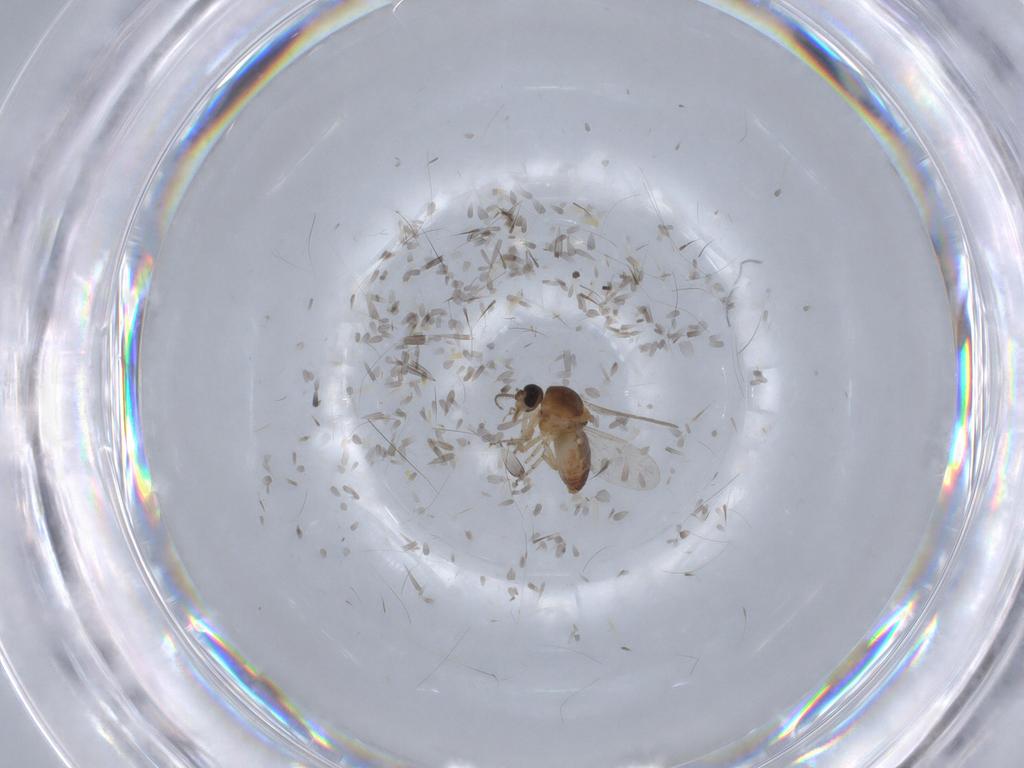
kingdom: Animalia
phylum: Arthropoda
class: Insecta
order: Diptera
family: Ceratopogonidae
